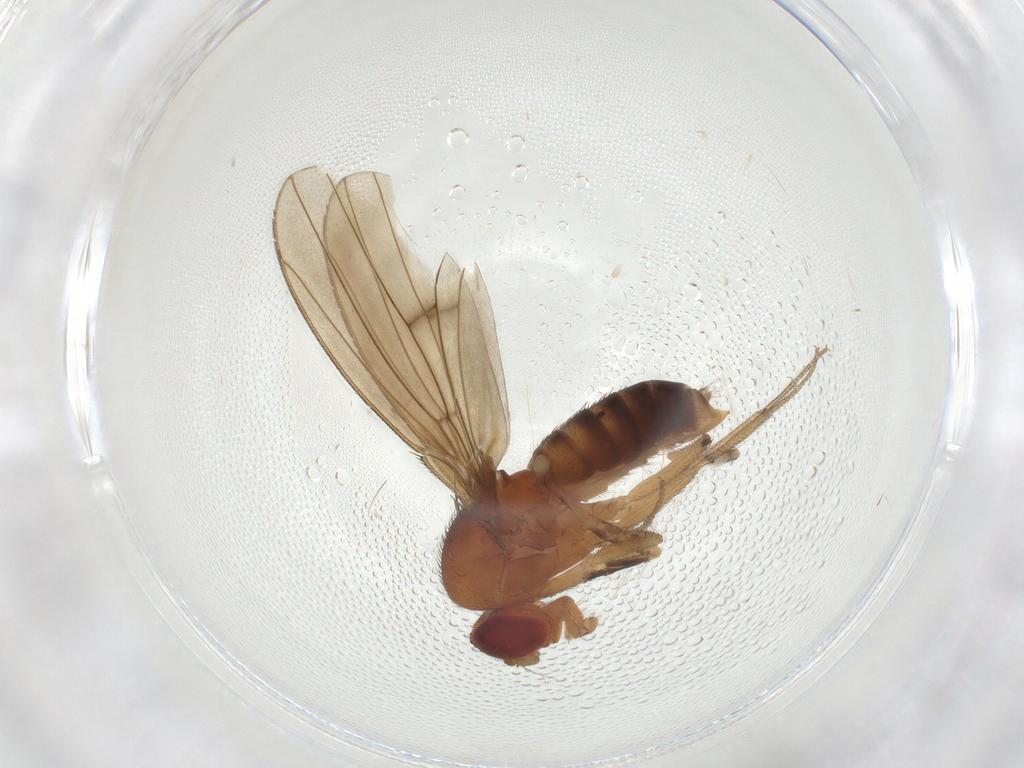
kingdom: Animalia
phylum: Arthropoda
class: Insecta
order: Diptera
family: Drosophilidae
